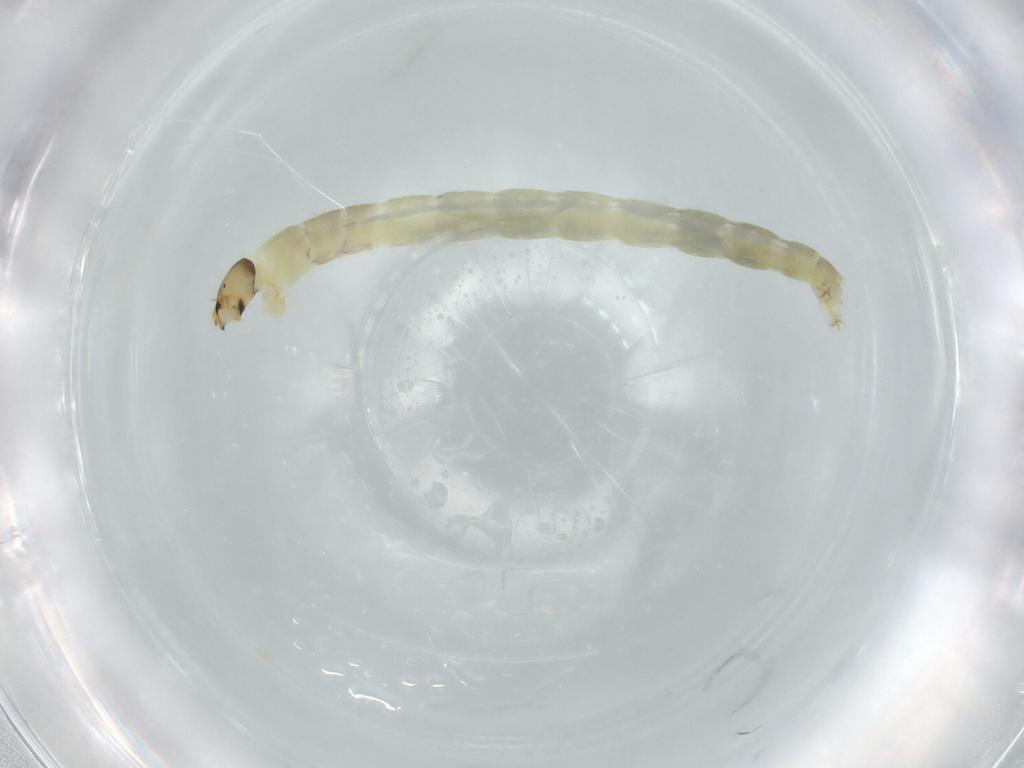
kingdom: Animalia
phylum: Arthropoda
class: Insecta
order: Diptera
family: Chironomidae
